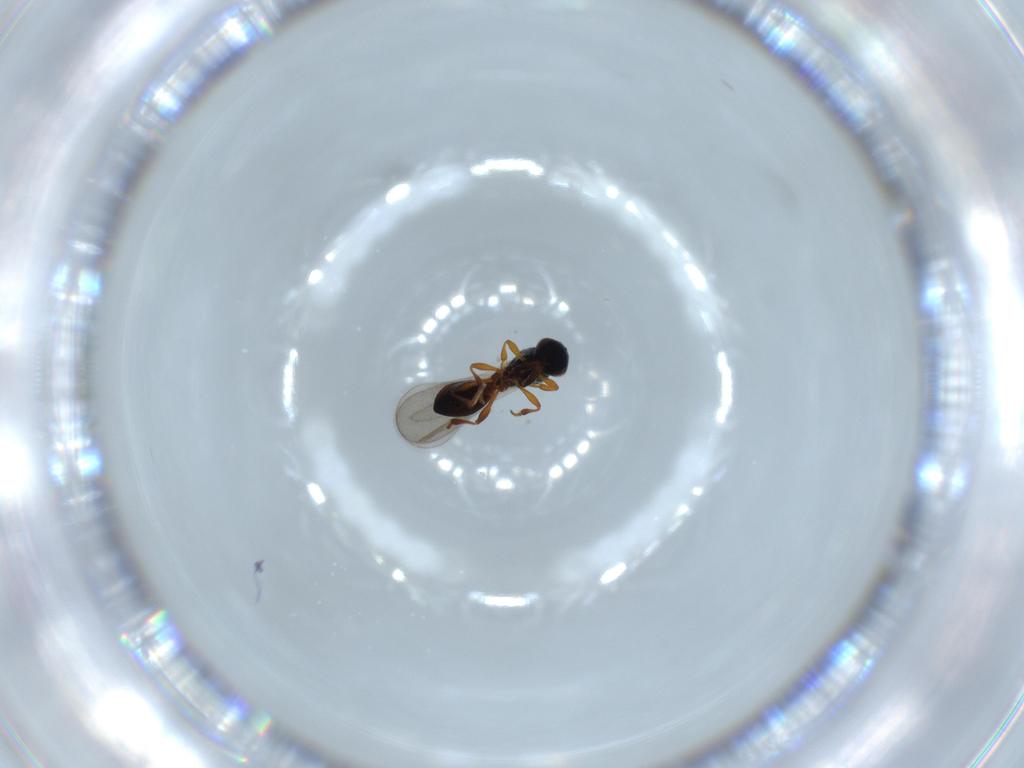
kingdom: Animalia
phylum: Arthropoda
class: Insecta
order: Hymenoptera
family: Platygastridae
